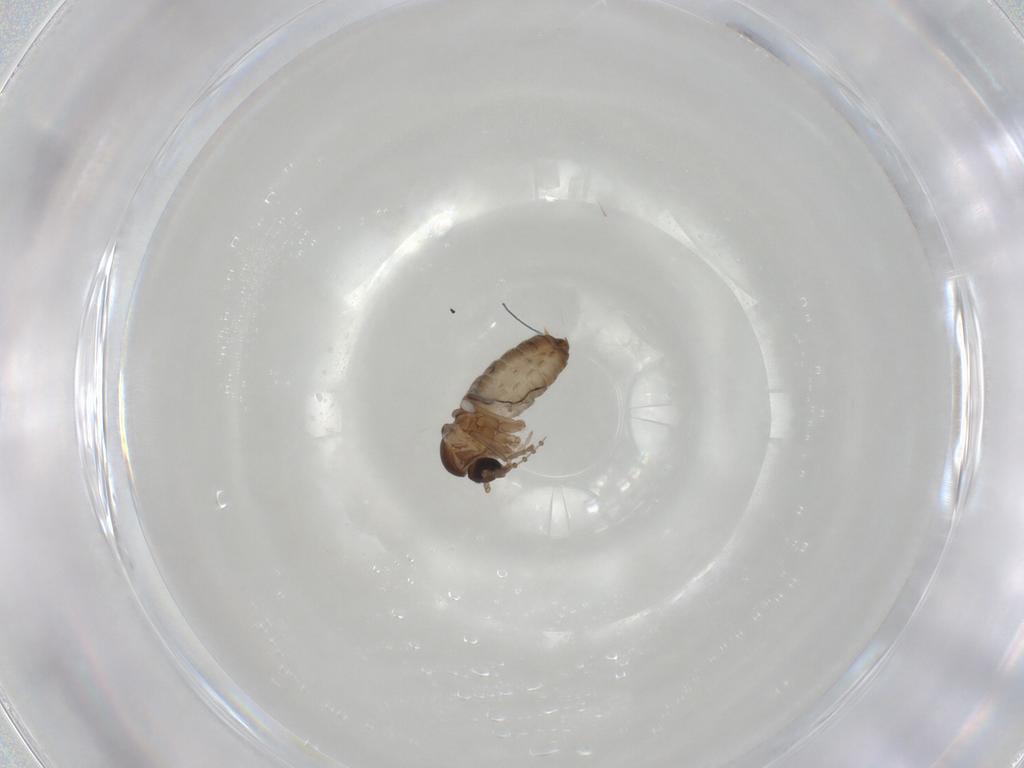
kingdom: Animalia
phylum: Arthropoda
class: Insecta
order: Diptera
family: Psychodidae
